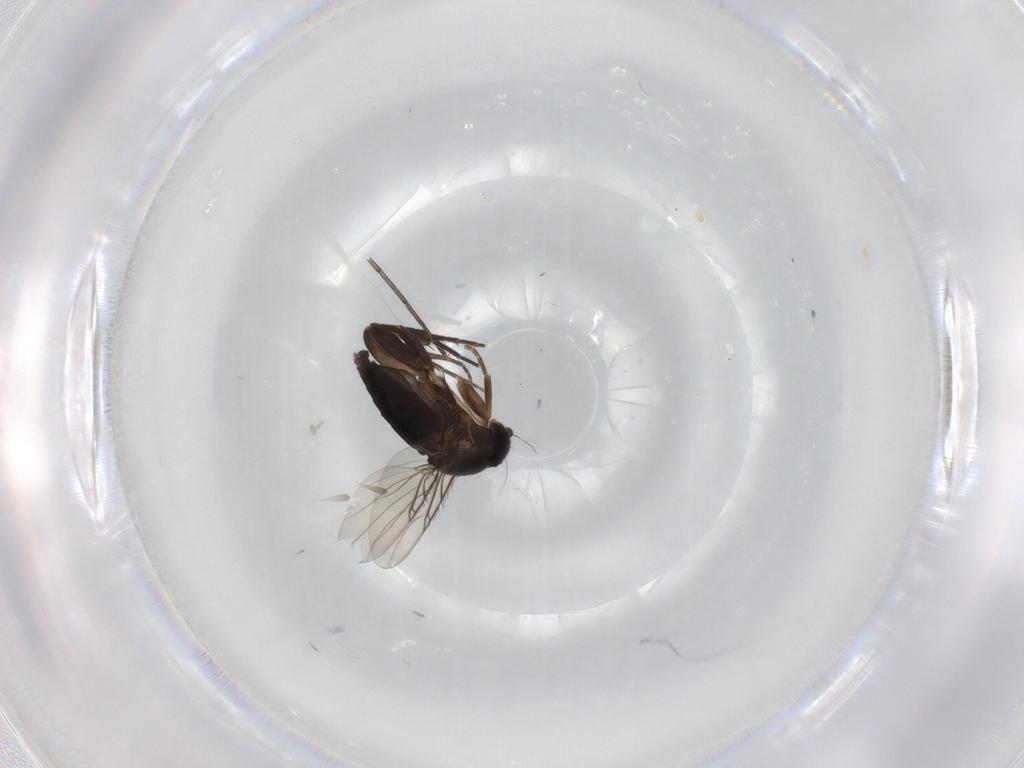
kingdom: Animalia
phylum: Arthropoda
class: Insecta
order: Diptera
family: Phoridae
